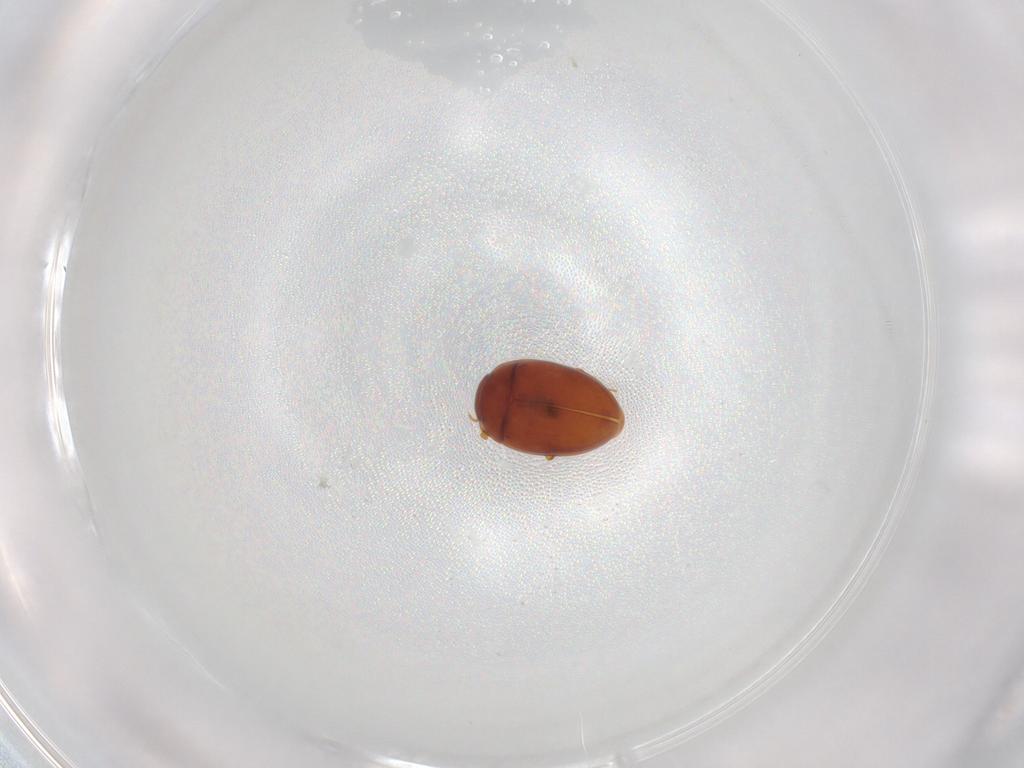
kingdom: Animalia
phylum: Arthropoda
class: Insecta
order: Coleoptera
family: Eupsilobiidae
